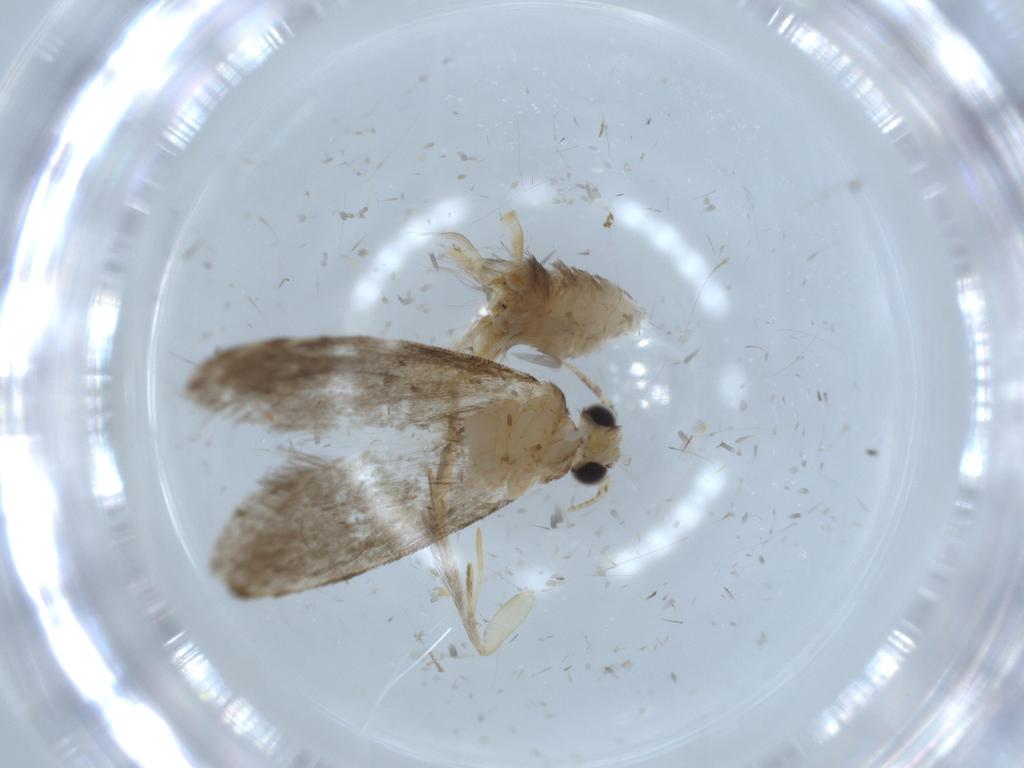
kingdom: Animalia
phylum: Arthropoda
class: Insecta
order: Lepidoptera
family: Tineidae
